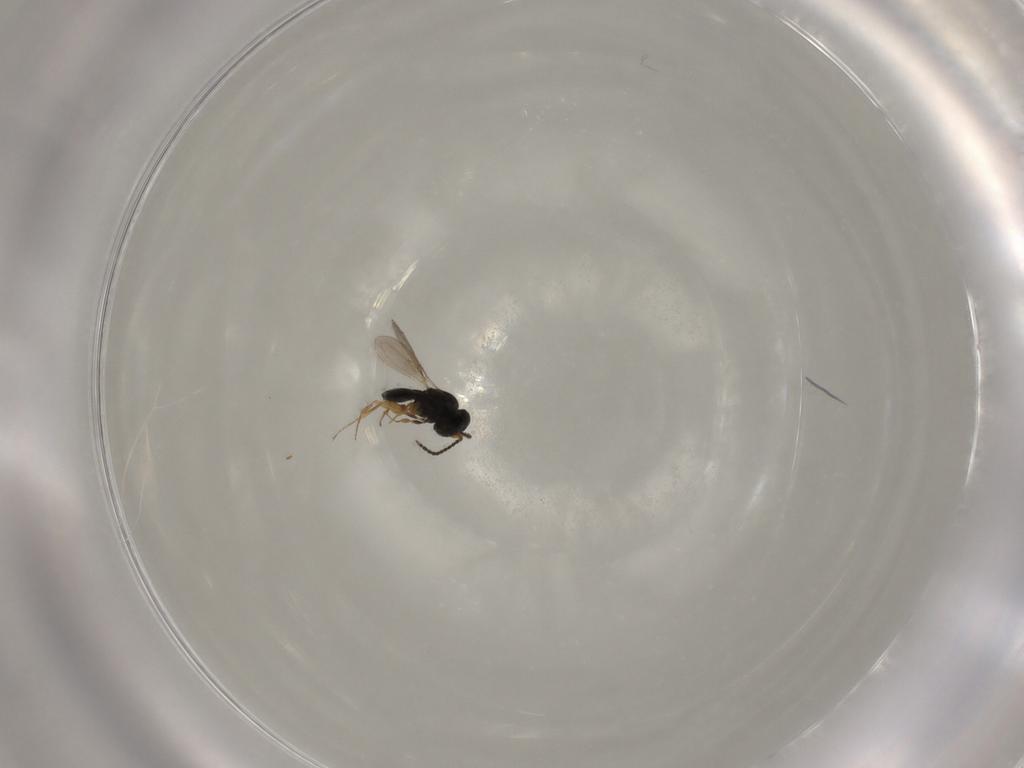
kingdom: Animalia
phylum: Arthropoda
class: Insecta
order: Hymenoptera
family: Scelionidae
